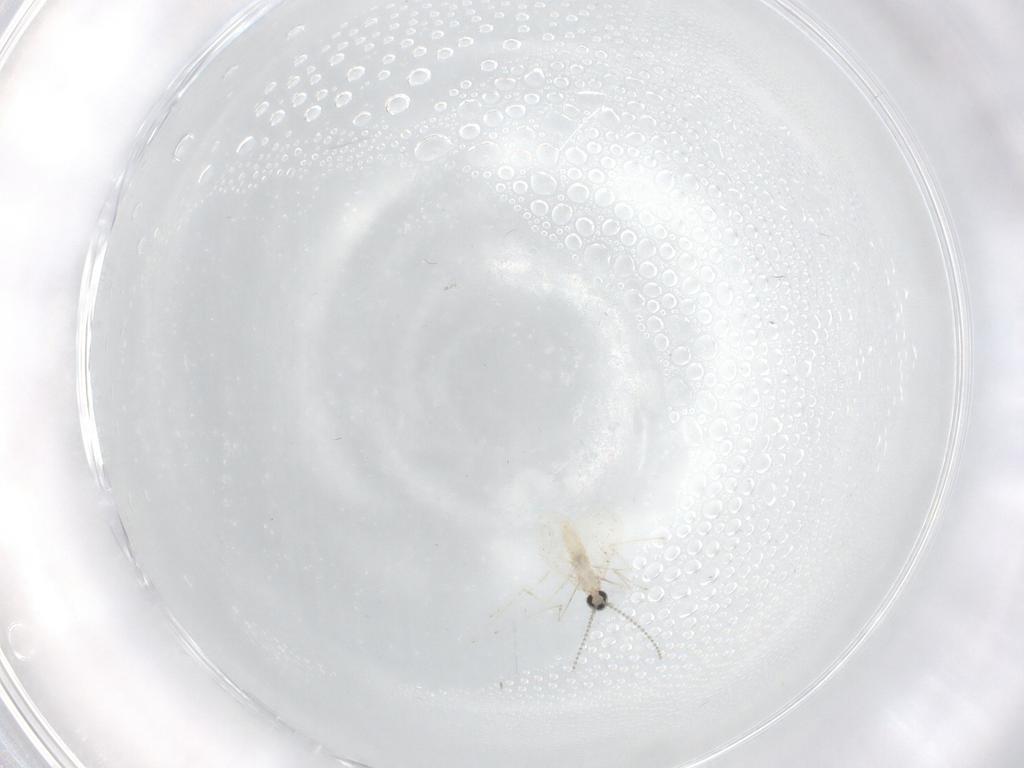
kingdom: Animalia
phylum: Arthropoda
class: Insecta
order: Diptera
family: Cecidomyiidae
